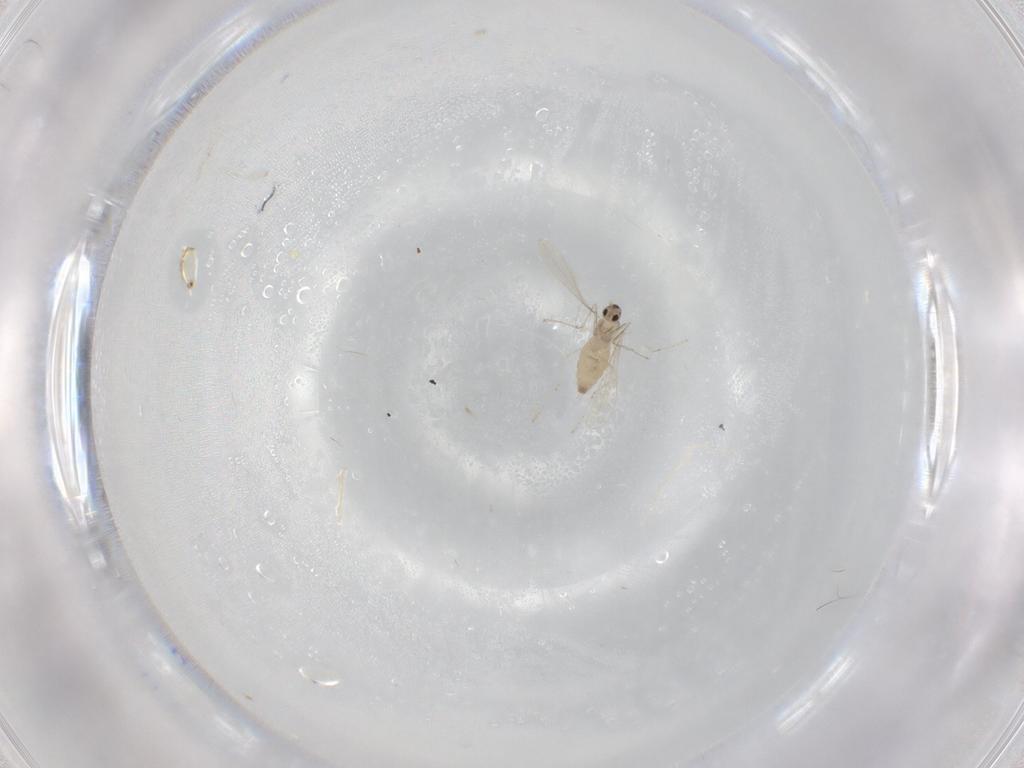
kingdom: Animalia
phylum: Arthropoda
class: Insecta
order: Diptera
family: Cecidomyiidae
